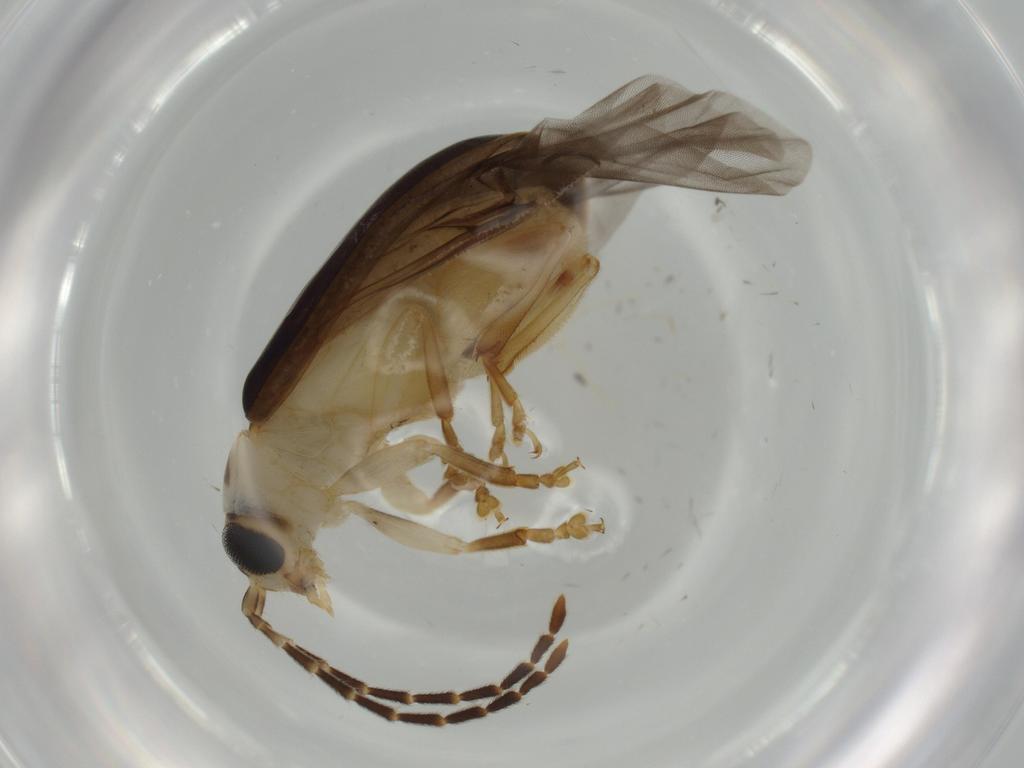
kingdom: Animalia
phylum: Arthropoda
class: Insecta
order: Coleoptera
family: Chrysomelidae
